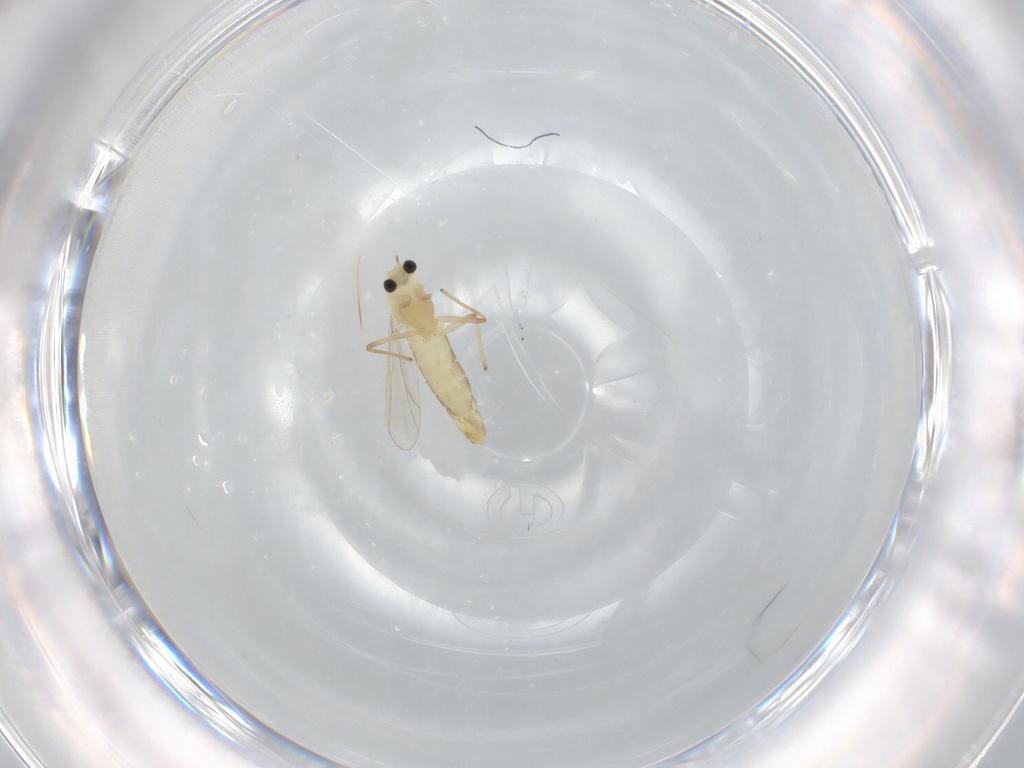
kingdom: Animalia
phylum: Arthropoda
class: Insecta
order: Diptera
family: Chironomidae
